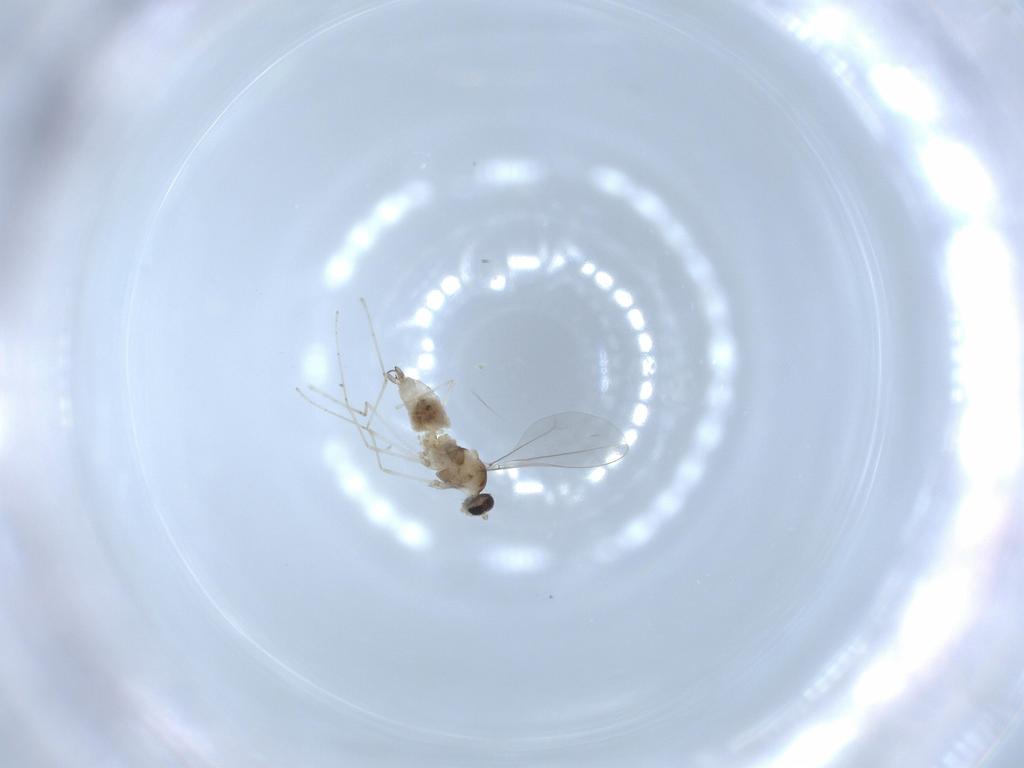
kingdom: Animalia
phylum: Arthropoda
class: Insecta
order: Diptera
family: Cecidomyiidae
